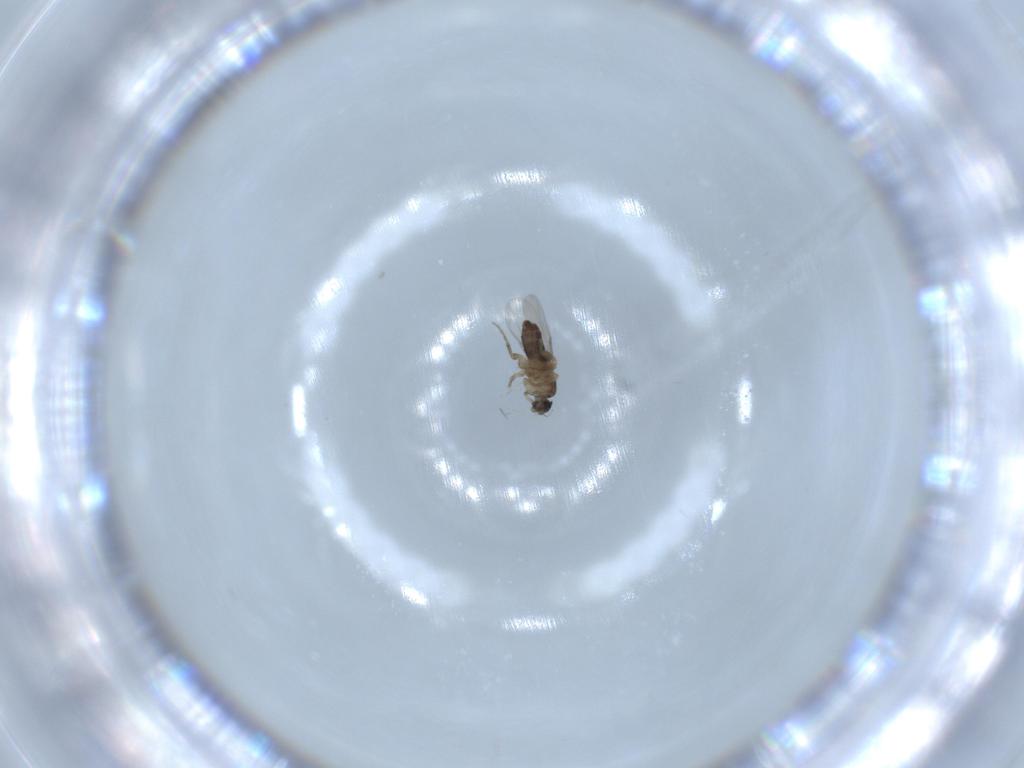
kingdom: Animalia
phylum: Arthropoda
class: Insecta
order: Diptera
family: Phoridae
